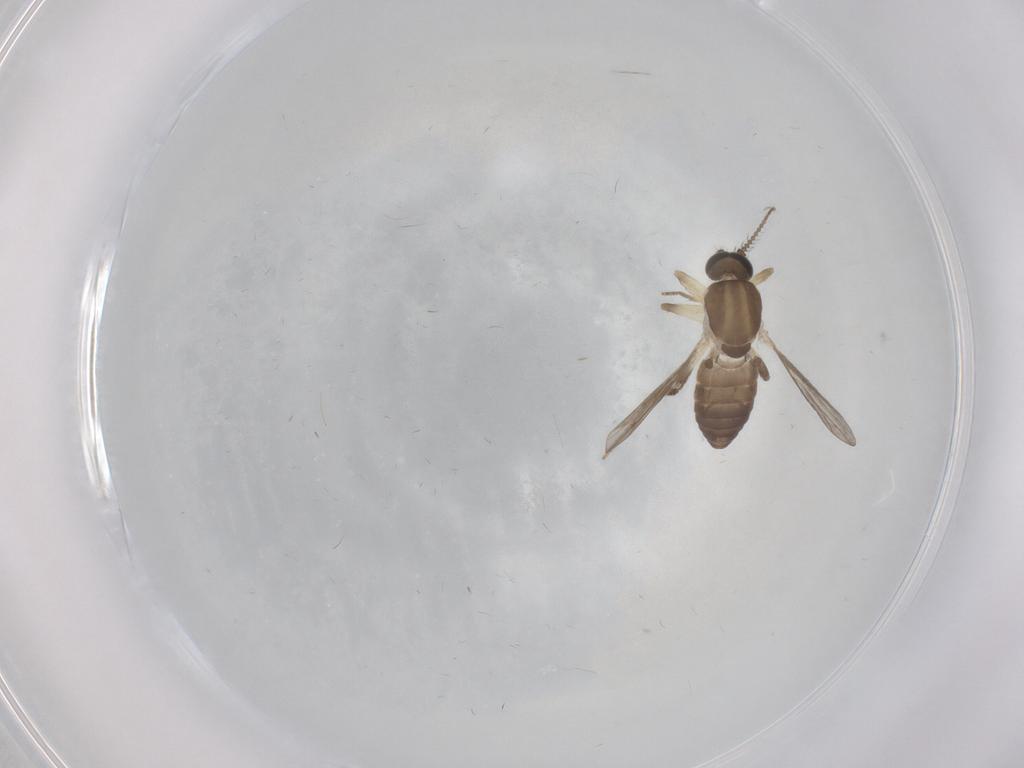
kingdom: Animalia
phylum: Arthropoda
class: Insecta
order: Diptera
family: Ceratopogonidae
